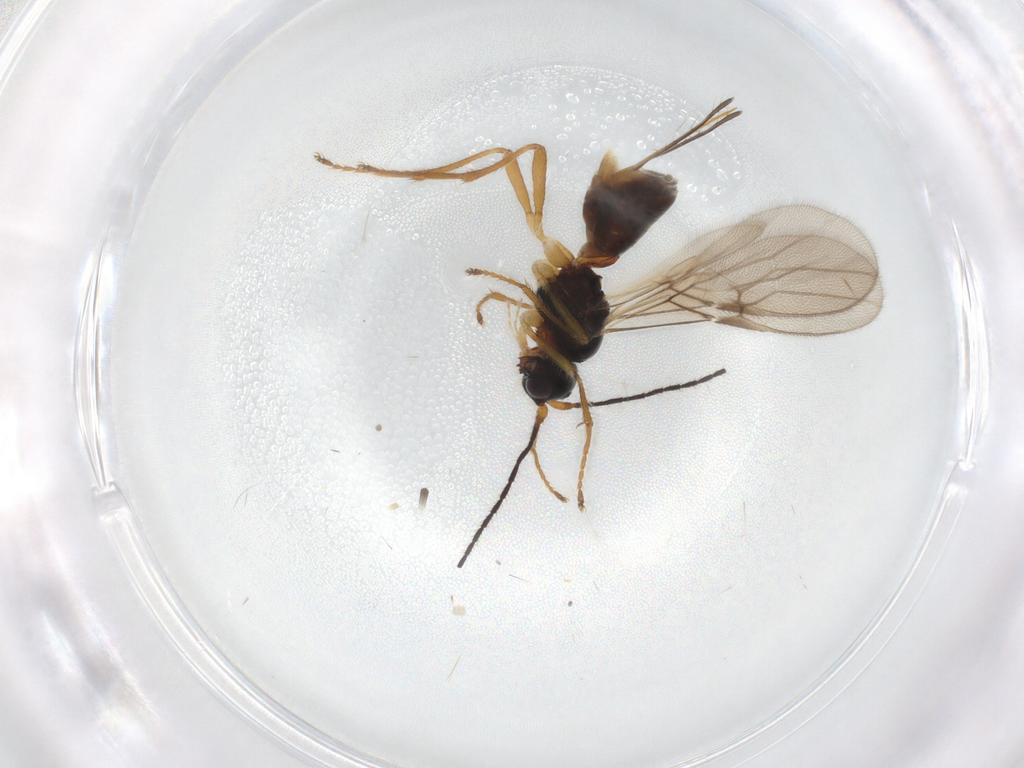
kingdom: Animalia
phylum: Arthropoda
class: Insecta
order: Hymenoptera
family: Braconidae
